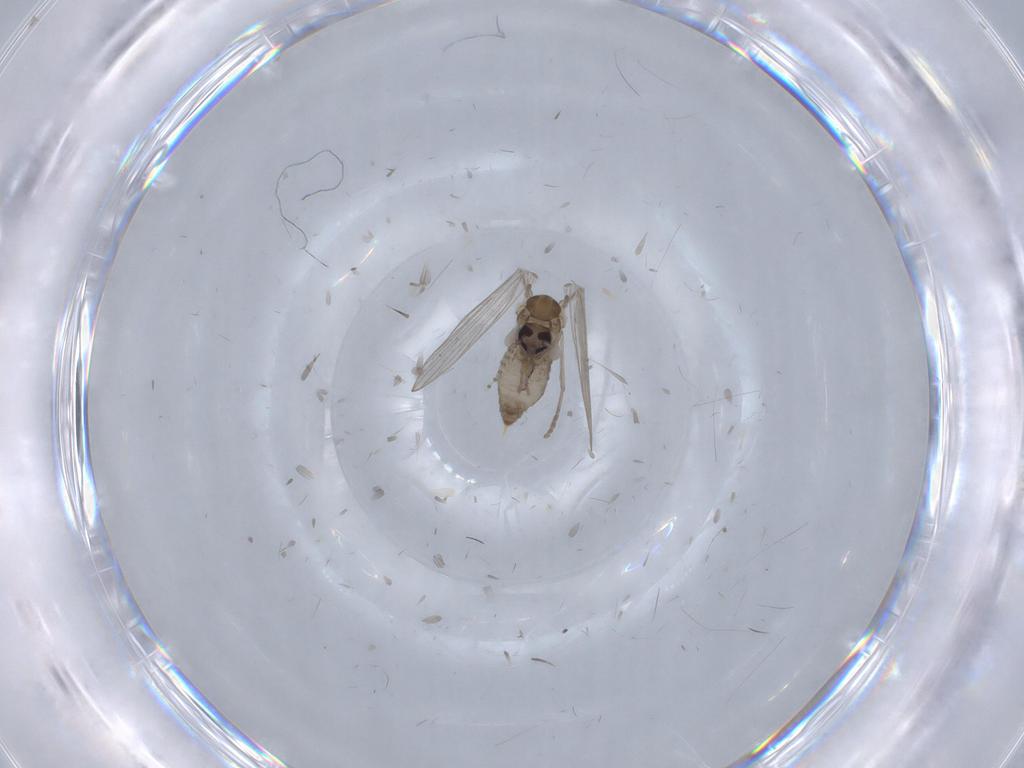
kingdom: Animalia
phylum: Arthropoda
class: Insecta
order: Diptera
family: Psychodidae
